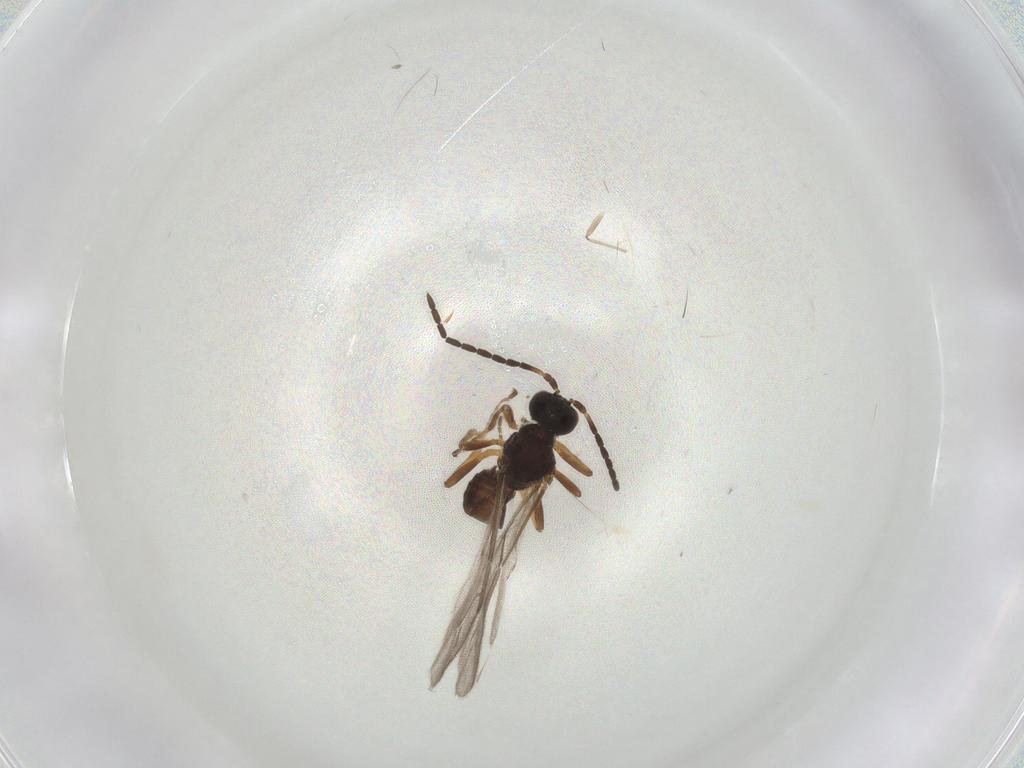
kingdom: Animalia
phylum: Arthropoda
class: Insecta
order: Hymenoptera
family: Braconidae
